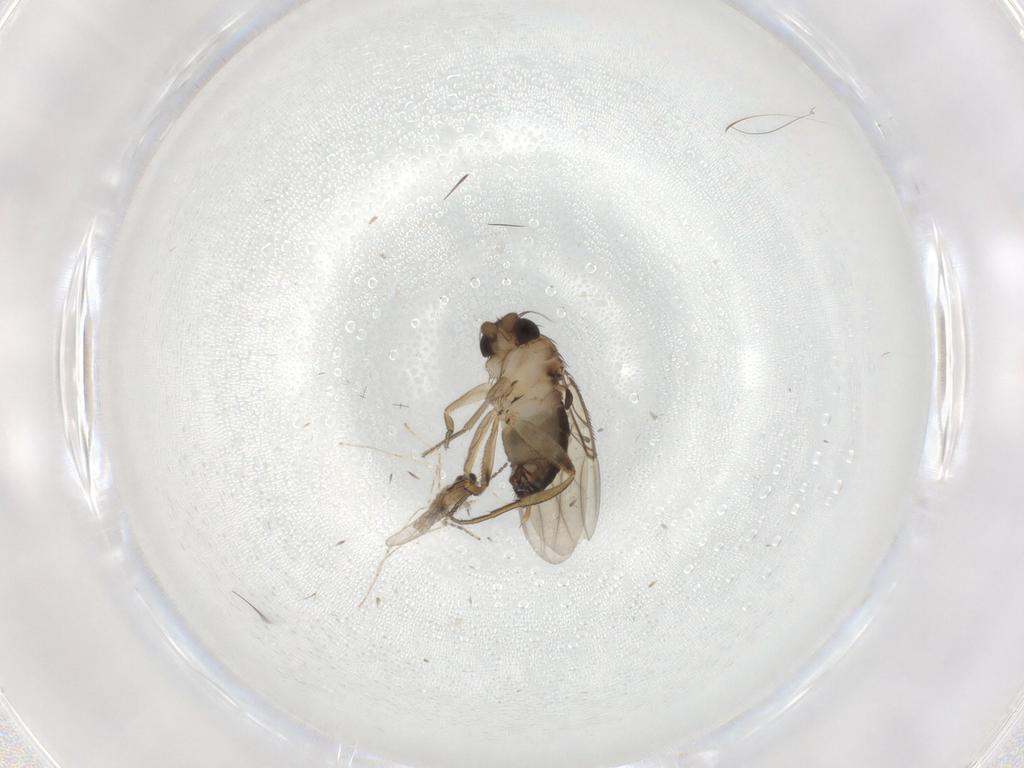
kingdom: Animalia
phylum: Arthropoda
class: Insecta
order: Diptera
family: Phoridae
